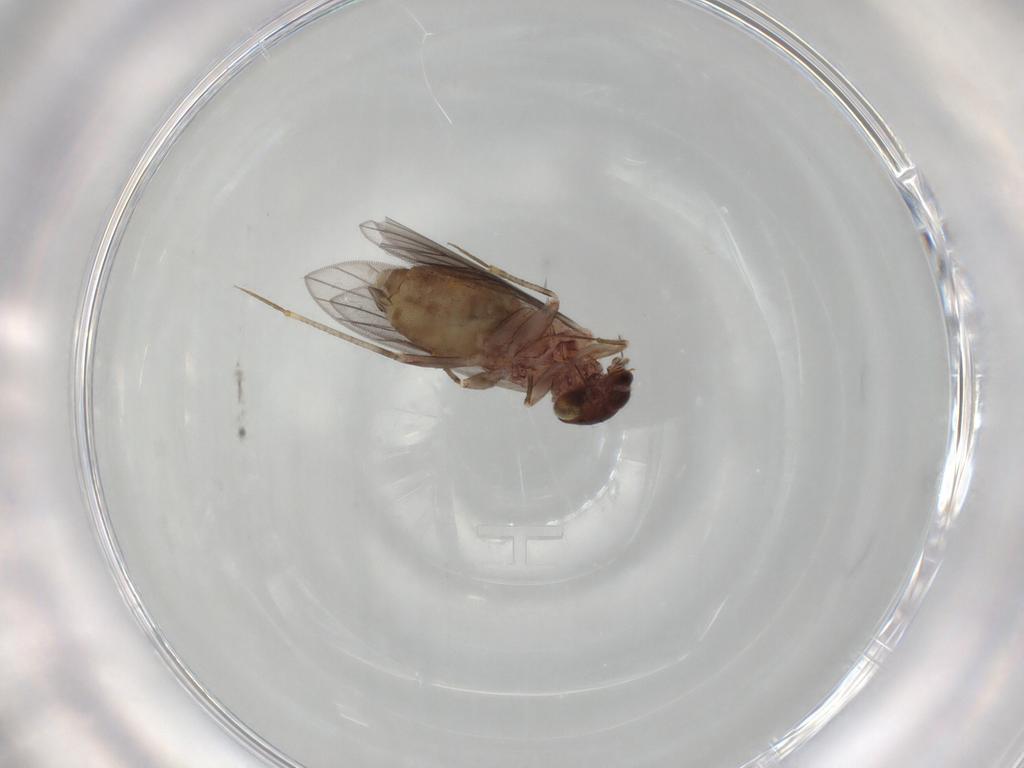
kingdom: Animalia
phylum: Arthropoda
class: Insecta
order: Psocodea
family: Lepidopsocidae
